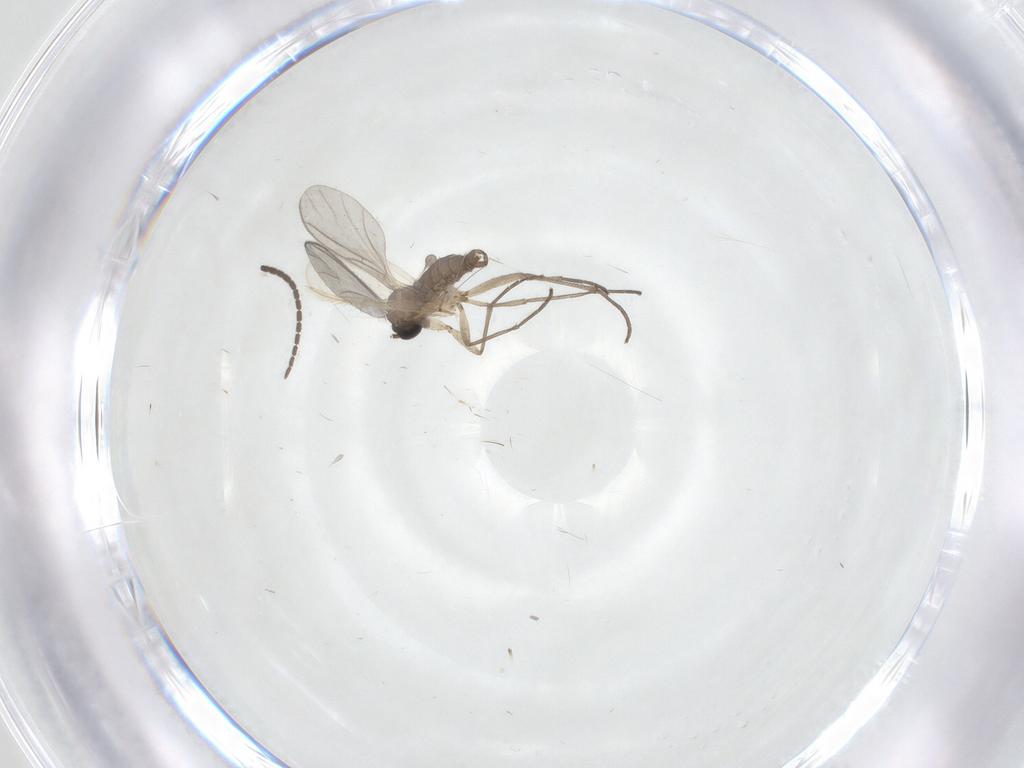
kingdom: Animalia
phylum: Arthropoda
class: Insecta
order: Diptera
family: Sciaridae
